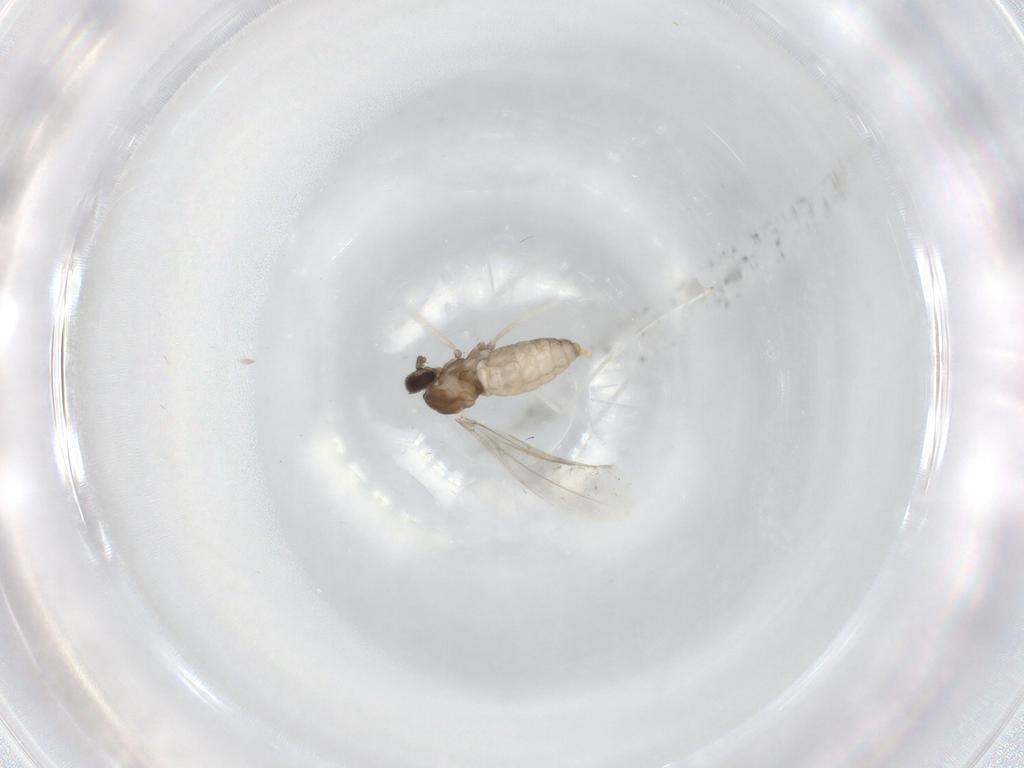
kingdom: Animalia
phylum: Arthropoda
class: Insecta
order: Diptera
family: Cecidomyiidae
